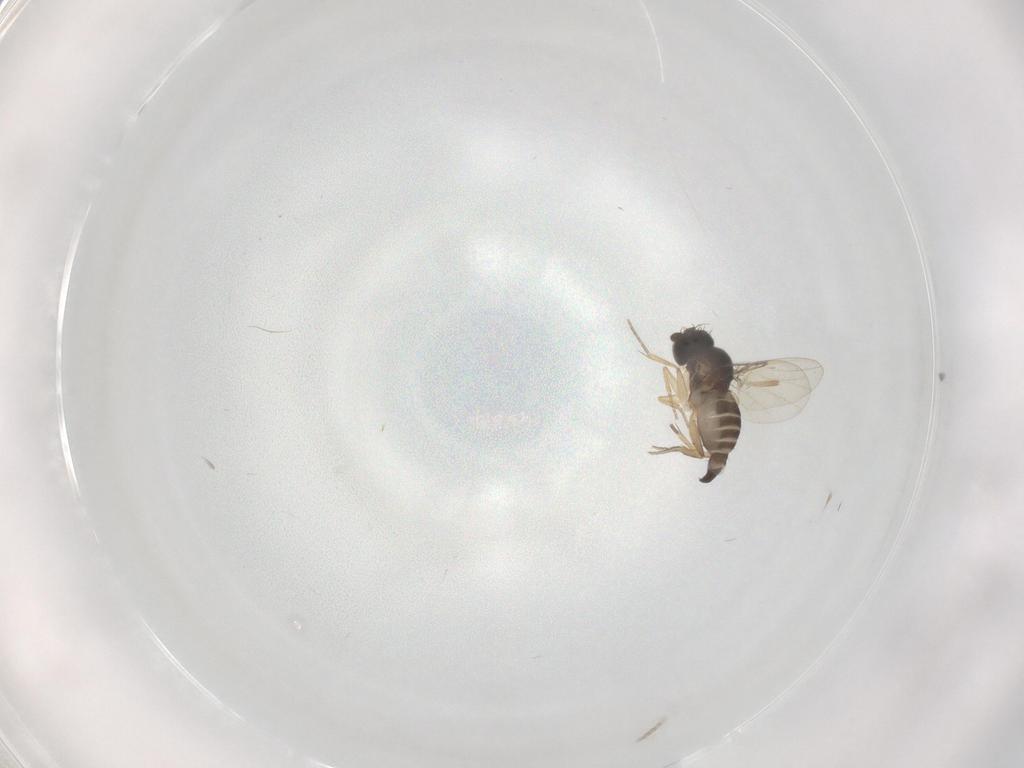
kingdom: Animalia
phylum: Arthropoda
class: Insecta
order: Diptera
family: Phoridae
